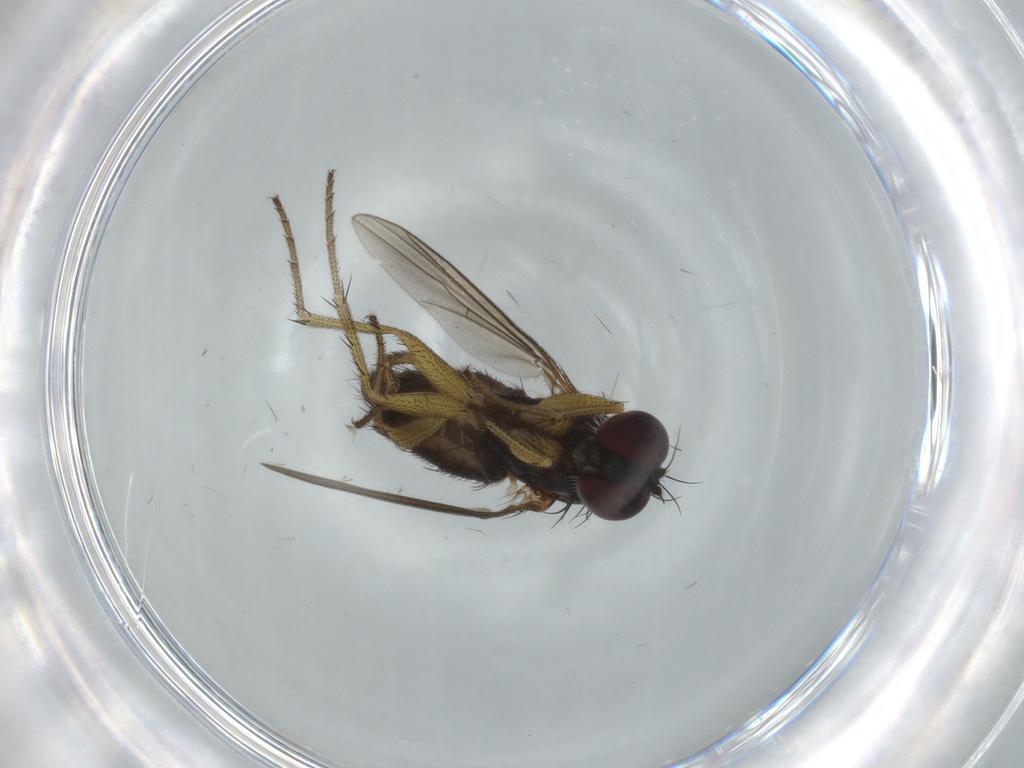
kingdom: Animalia
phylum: Arthropoda
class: Insecta
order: Diptera
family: Dolichopodidae
